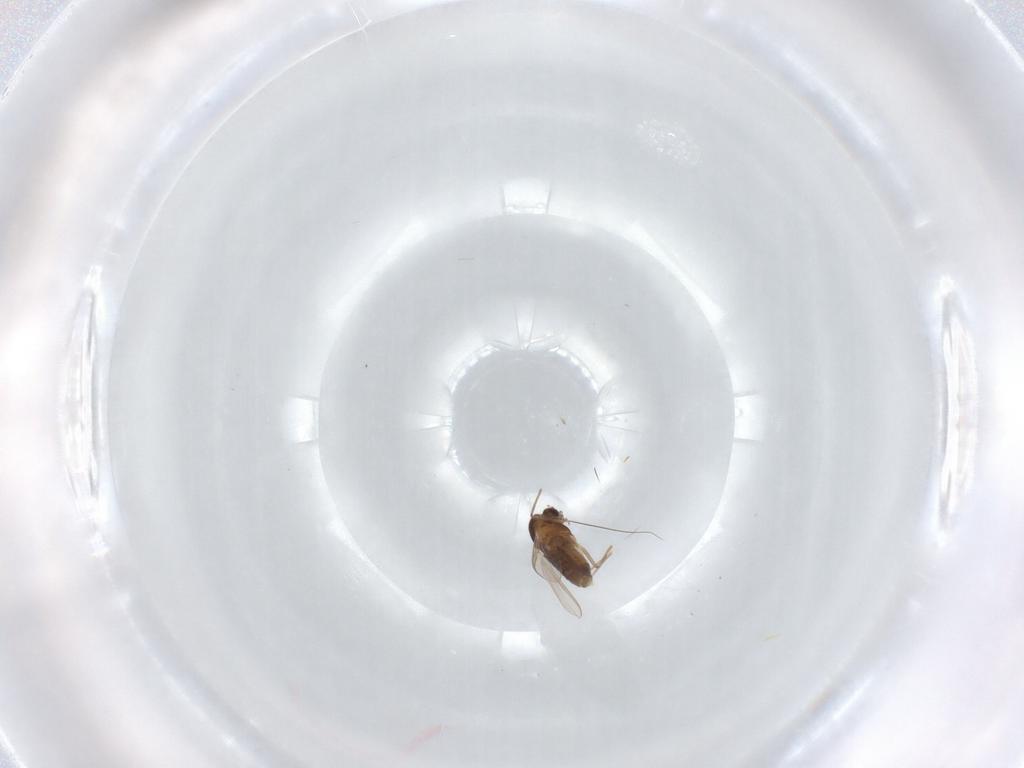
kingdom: Animalia
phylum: Arthropoda
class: Insecta
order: Diptera
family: Chironomidae
